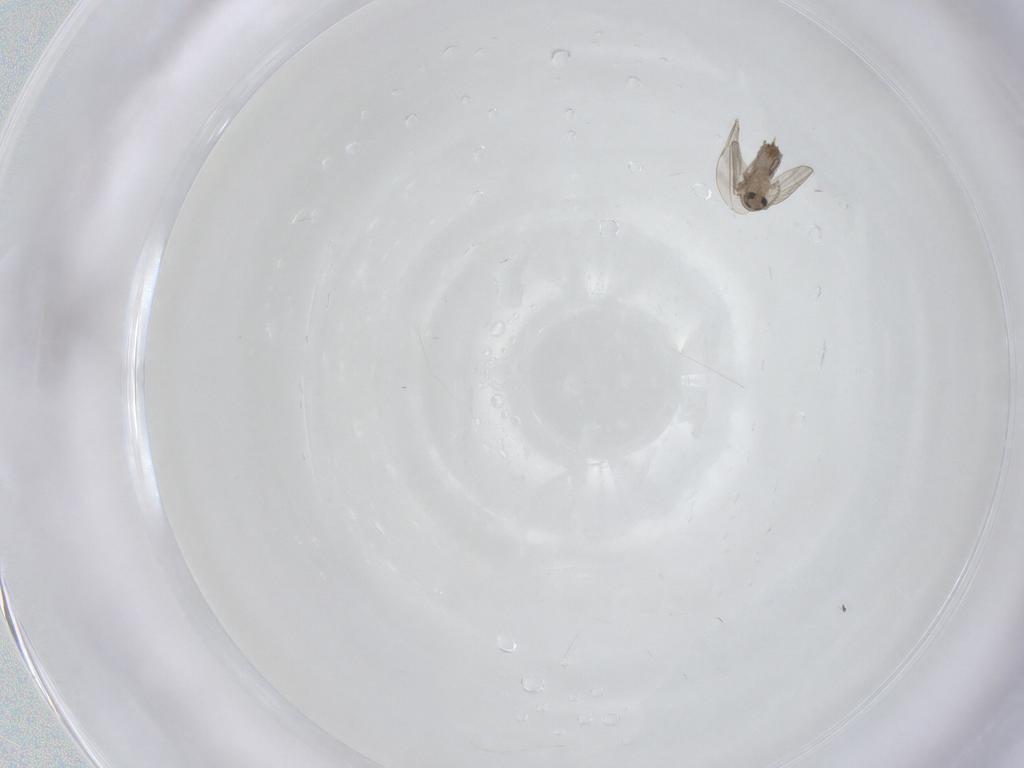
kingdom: Animalia
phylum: Arthropoda
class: Insecta
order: Diptera
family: Cecidomyiidae
